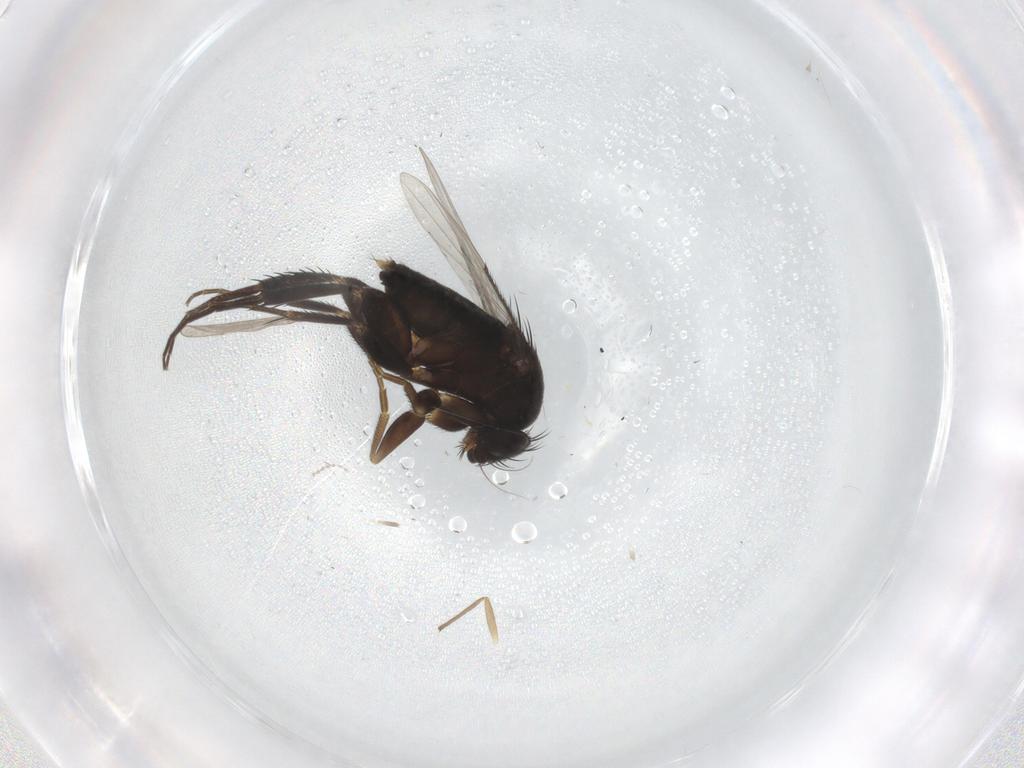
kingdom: Animalia
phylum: Arthropoda
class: Insecta
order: Diptera
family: Phoridae
